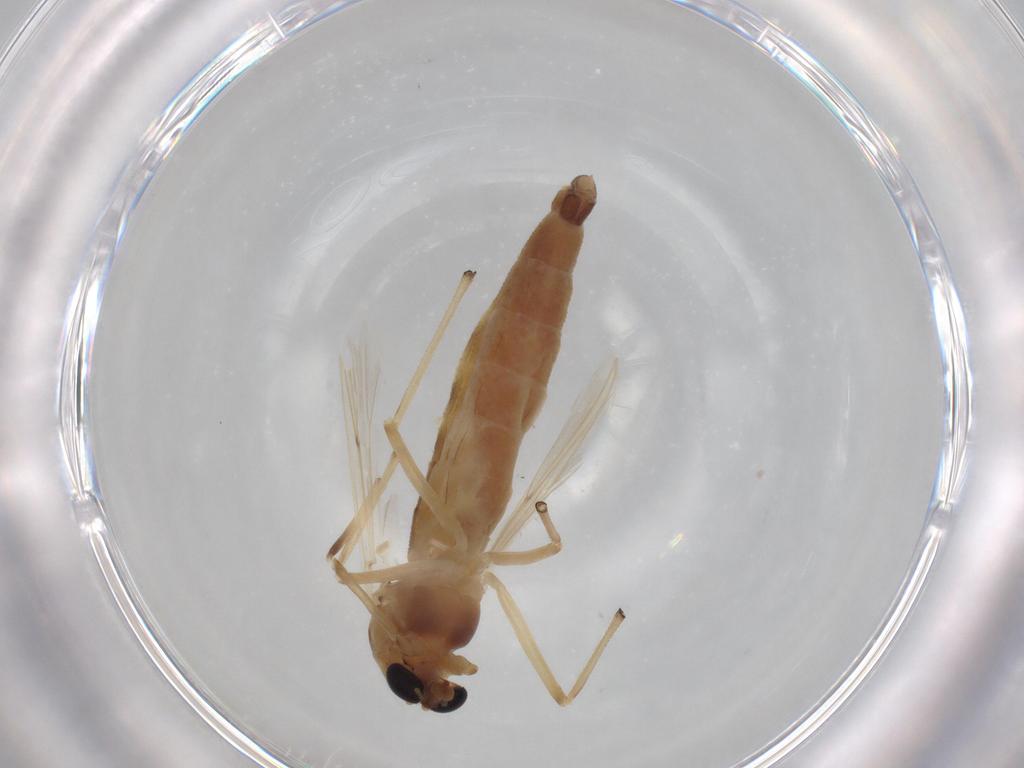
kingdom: Animalia
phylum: Arthropoda
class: Insecta
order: Diptera
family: Chironomidae
